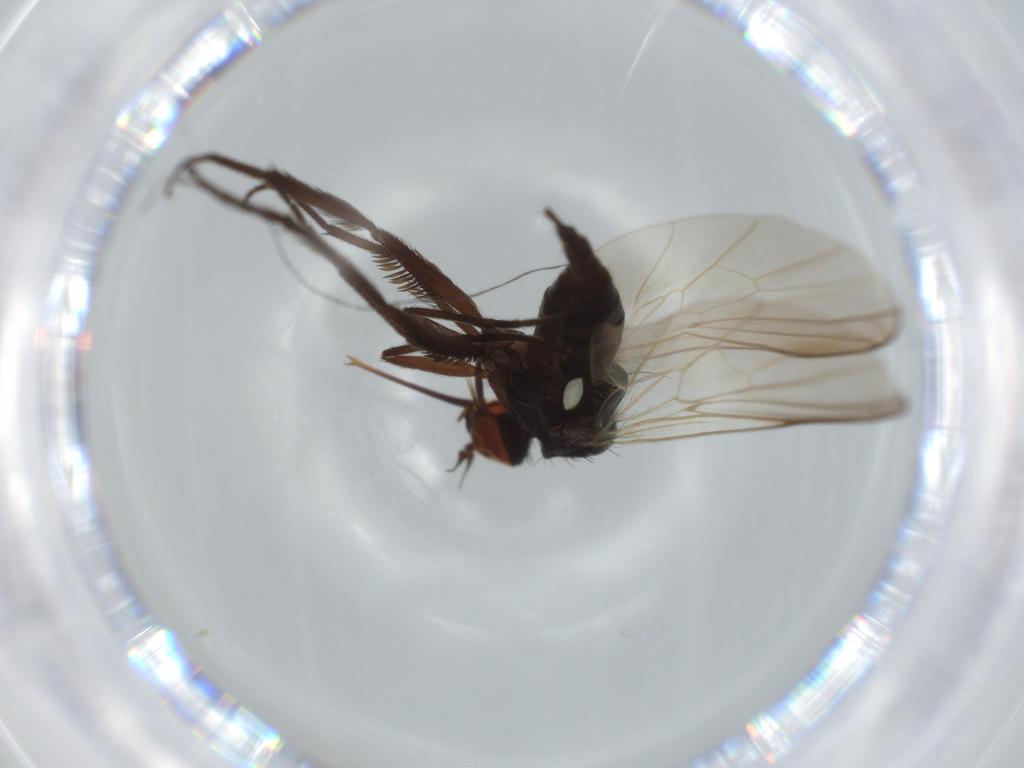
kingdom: Animalia
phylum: Arthropoda
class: Insecta
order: Diptera
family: Empididae
